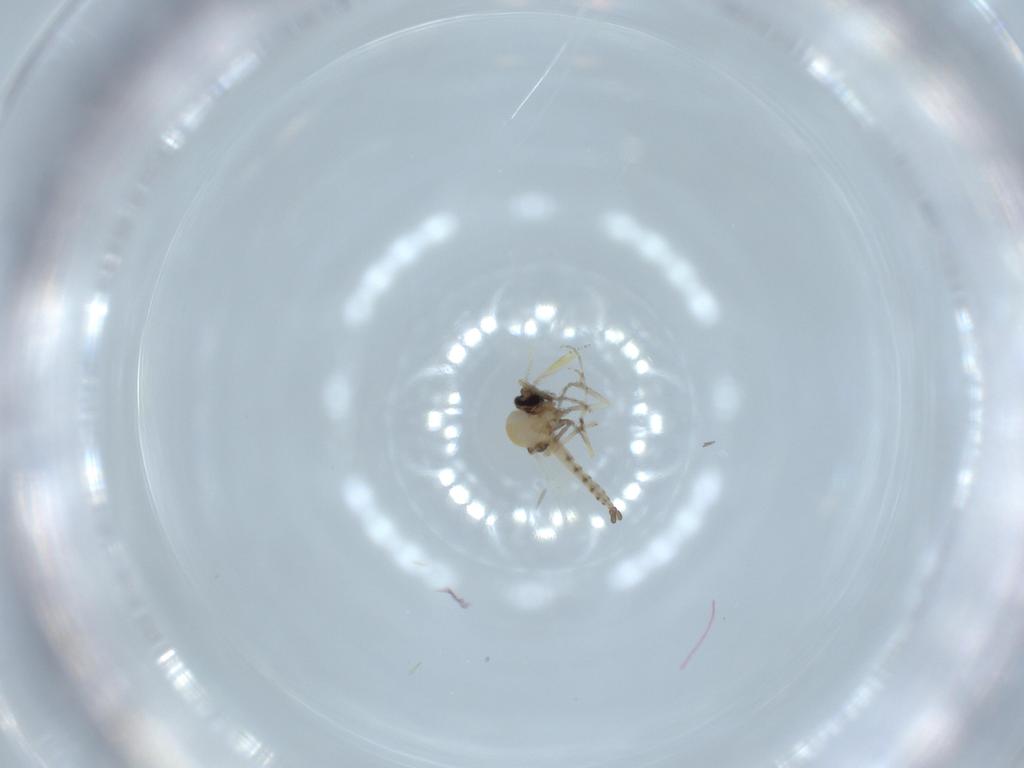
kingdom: Animalia
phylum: Arthropoda
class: Insecta
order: Diptera
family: Ceratopogonidae
